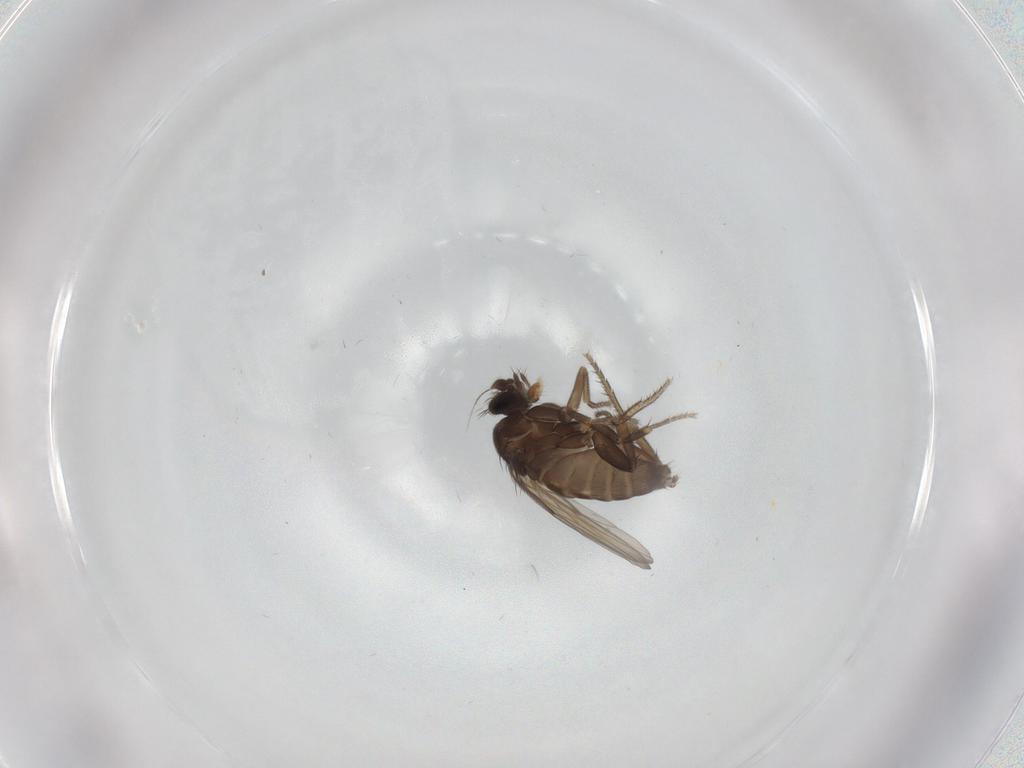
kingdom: Animalia
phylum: Arthropoda
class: Insecta
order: Diptera
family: Phoridae
